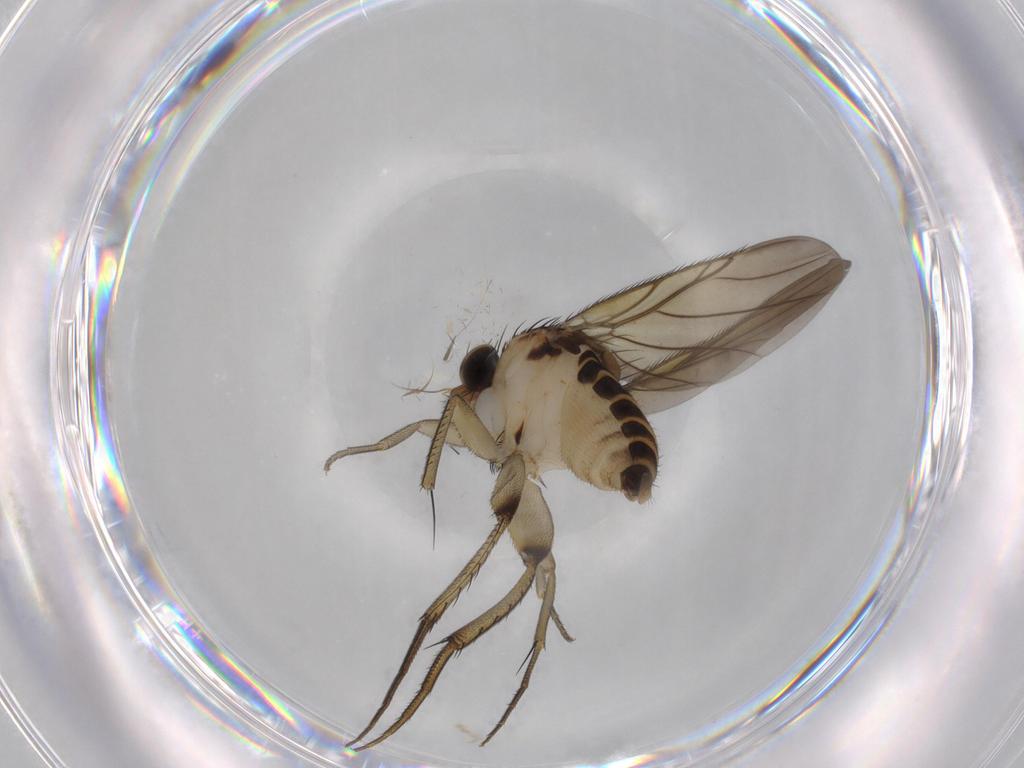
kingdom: Animalia
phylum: Arthropoda
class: Insecta
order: Diptera
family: Phoridae
